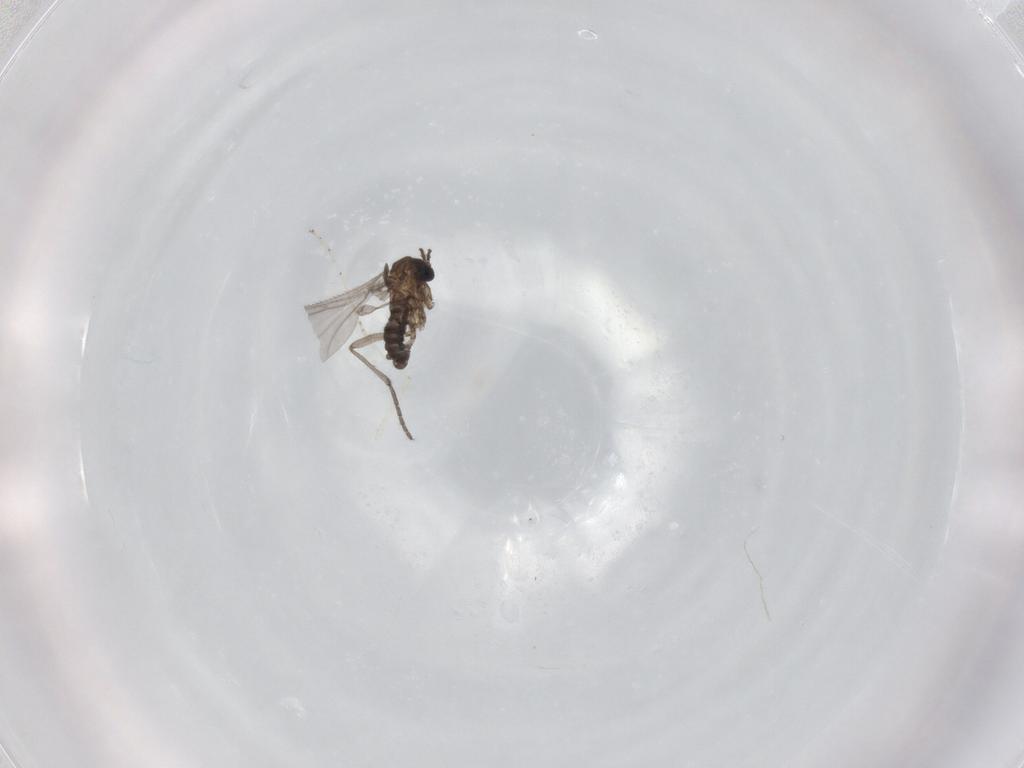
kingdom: Animalia
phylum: Arthropoda
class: Insecta
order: Diptera
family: Sciaridae
